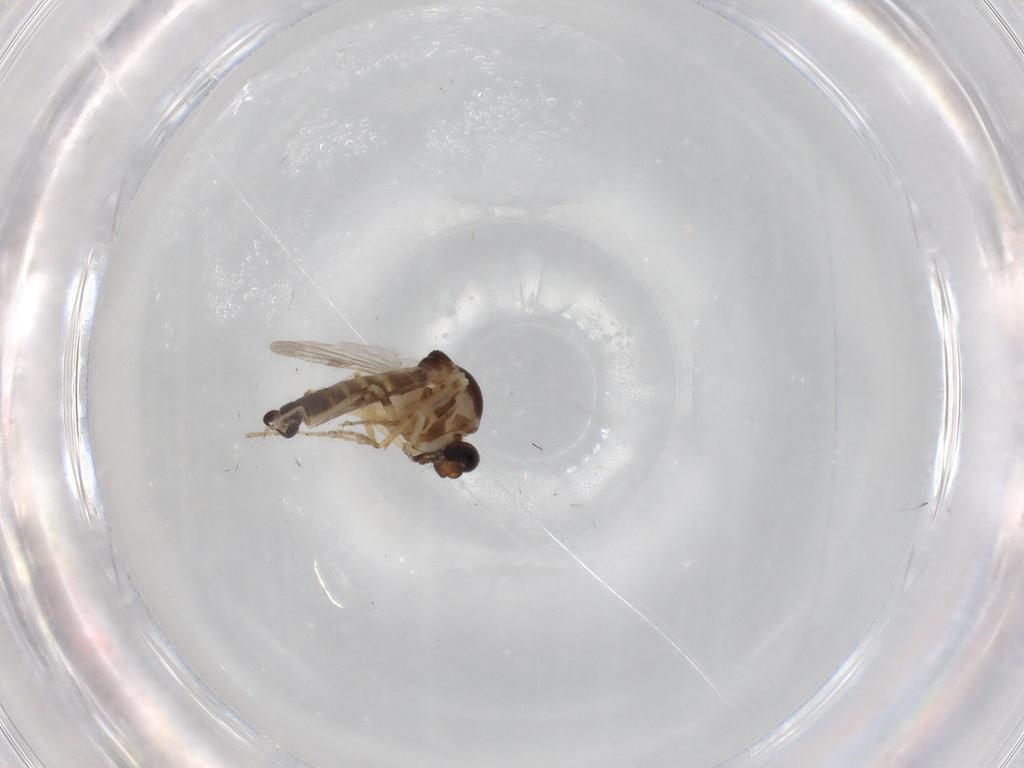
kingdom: Animalia
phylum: Arthropoda
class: Insecta
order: Diptera
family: Ceratopogonidae
